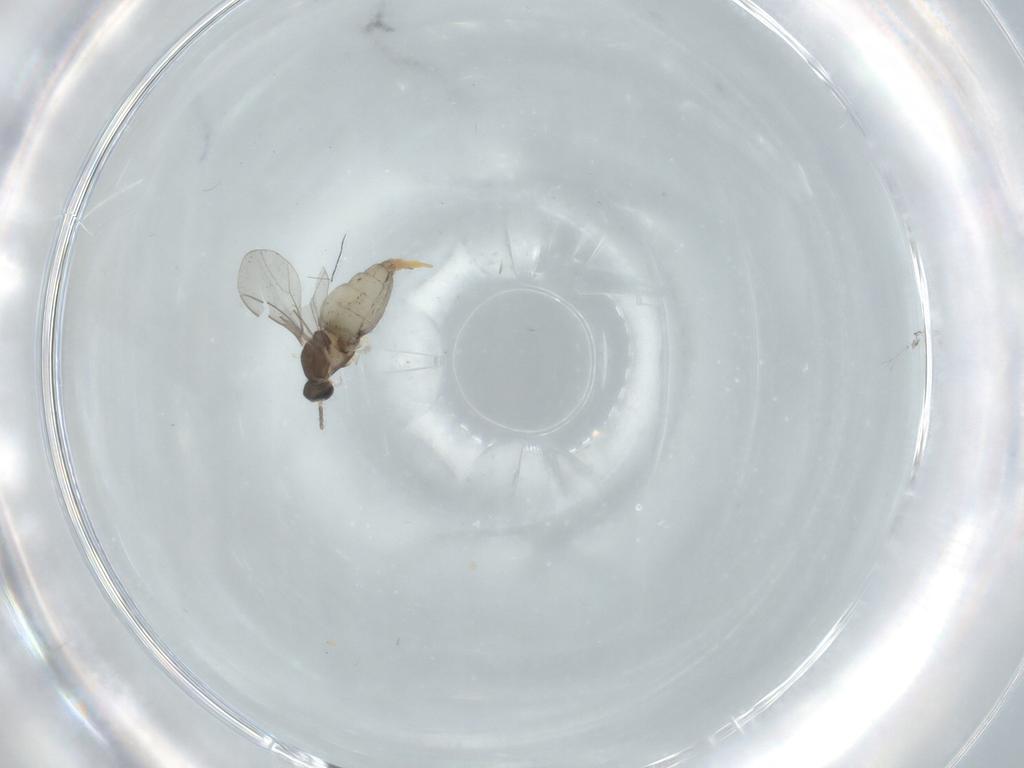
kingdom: Animalia
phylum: Arthropoda
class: Insecta
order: Diptera
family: Cecidomyiidae
